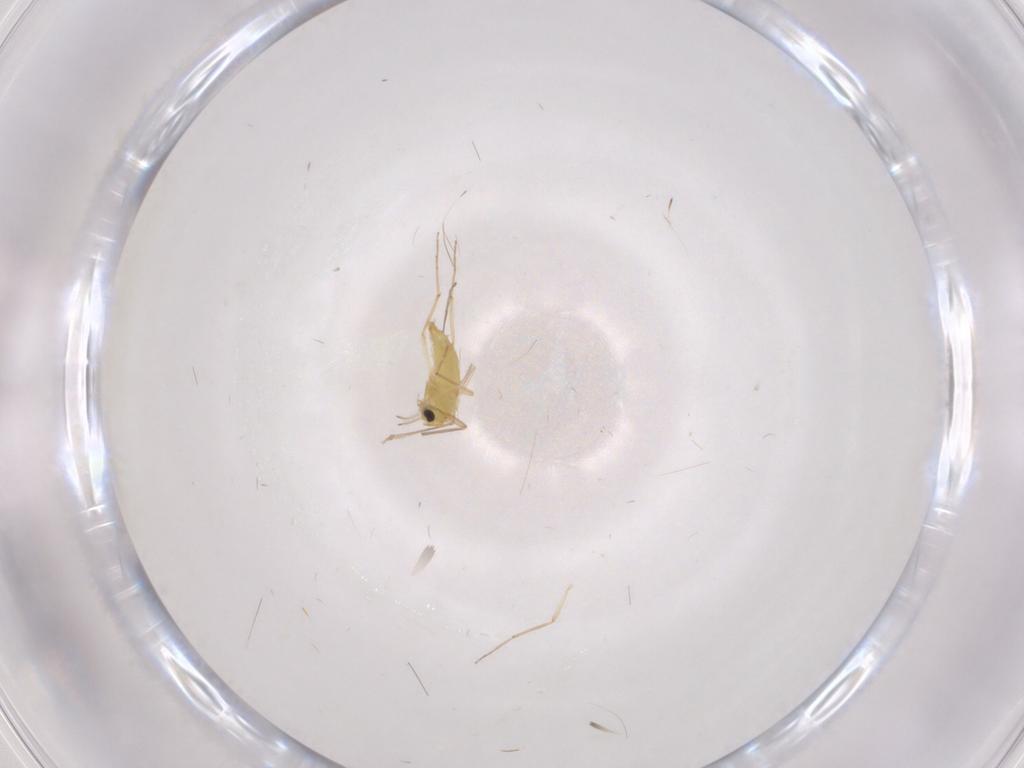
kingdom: Animalia
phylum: Arthropoda
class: Insecta
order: Diptera
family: Chironomidae
